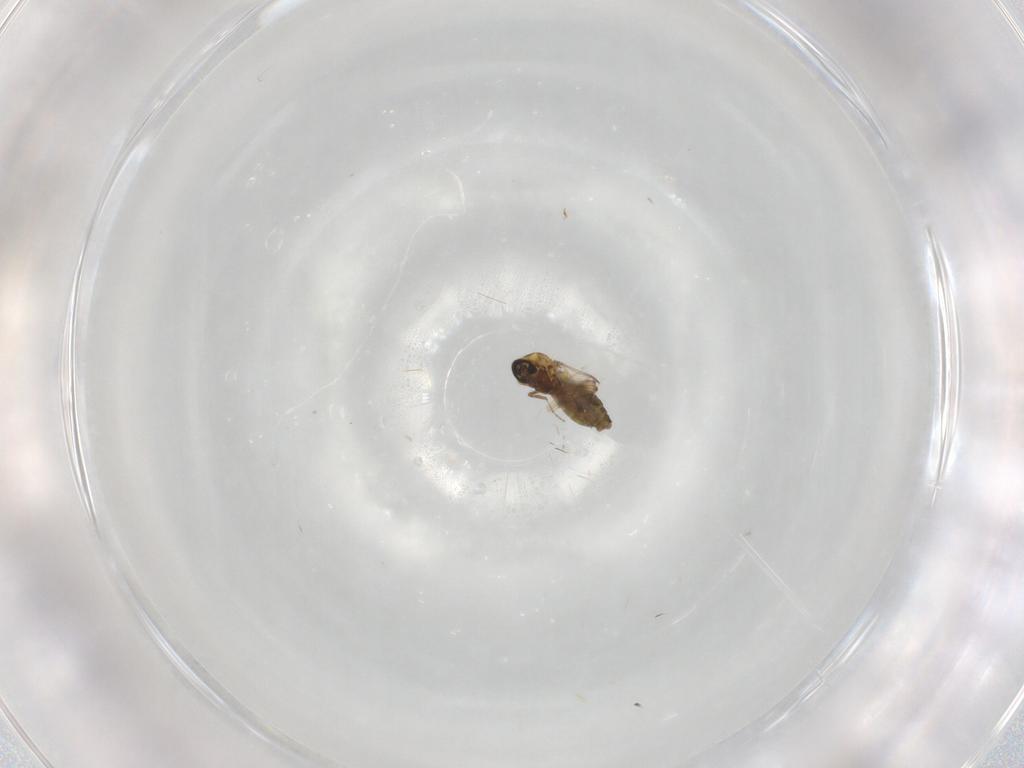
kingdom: Animalia
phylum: Arthropoda
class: Insecta
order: Diptera
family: Ceratopogonidae
